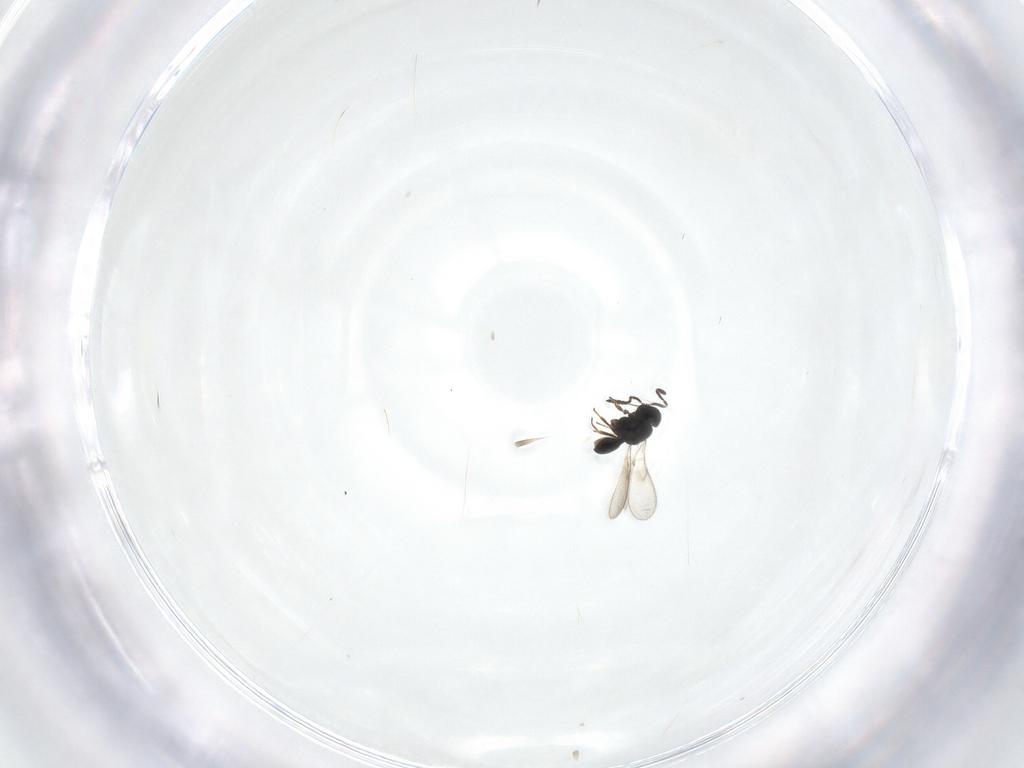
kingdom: Animalia
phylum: Arthropoda
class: Insecta
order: Hymenoptera
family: Scelionidae
